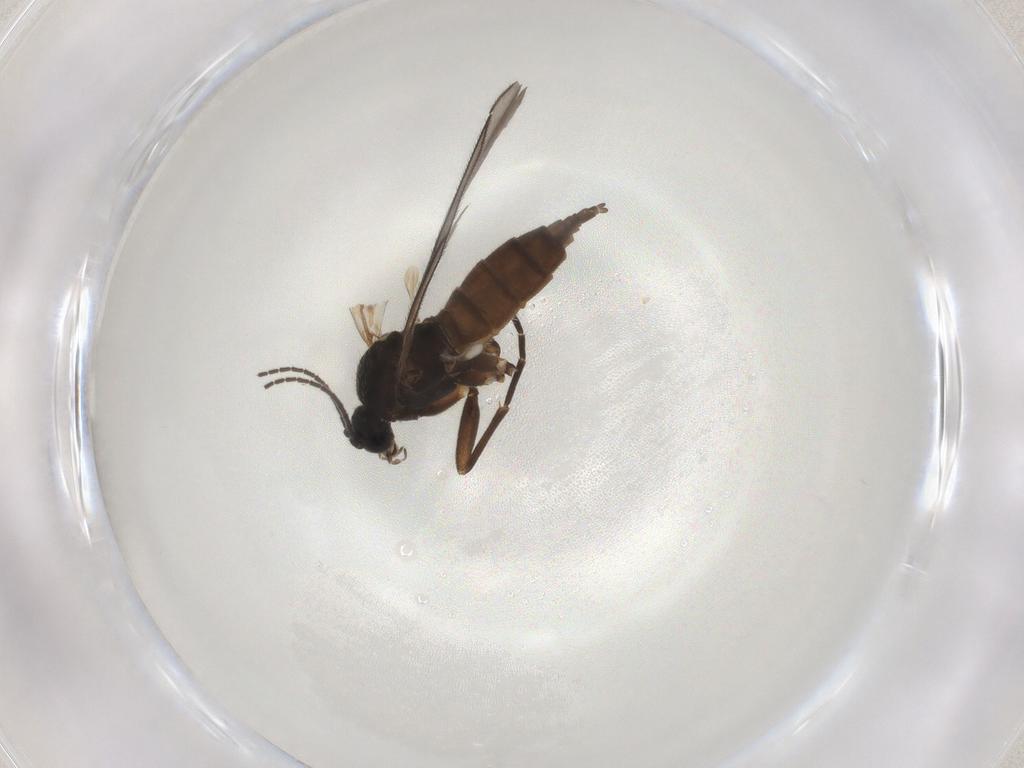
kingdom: Animalia
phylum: Arthropoda
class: Insecta
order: Diptera
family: Sciaridae
